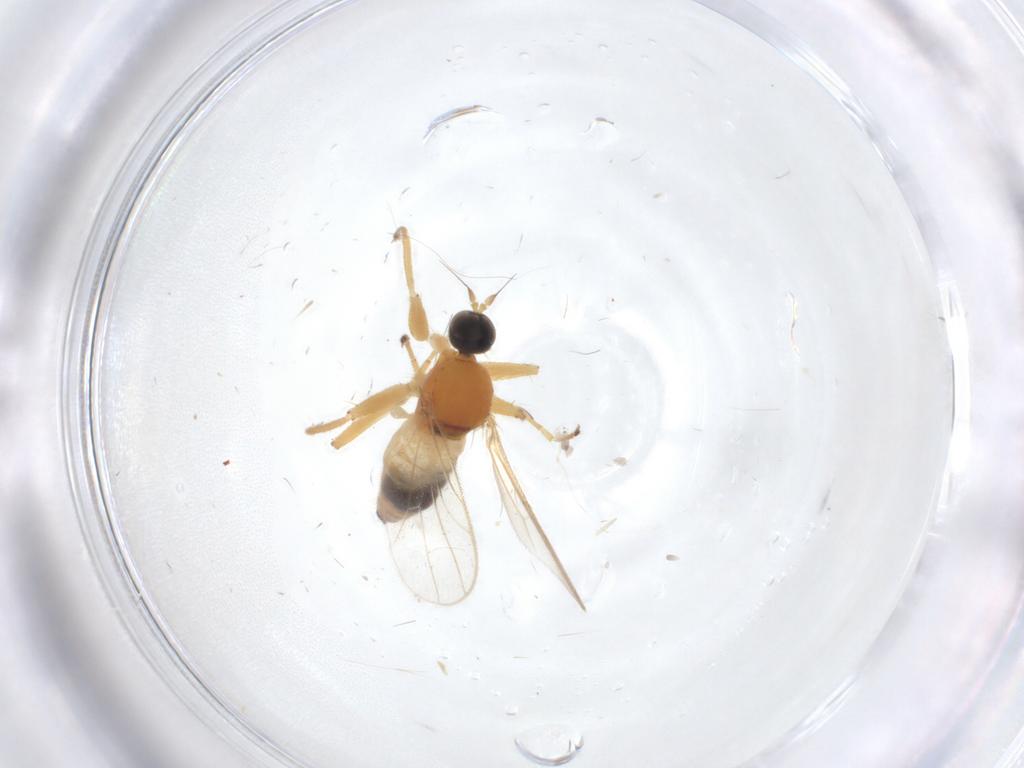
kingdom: Animalia
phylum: Arthropoda
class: Insecta
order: Diptera
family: Hybotidae
